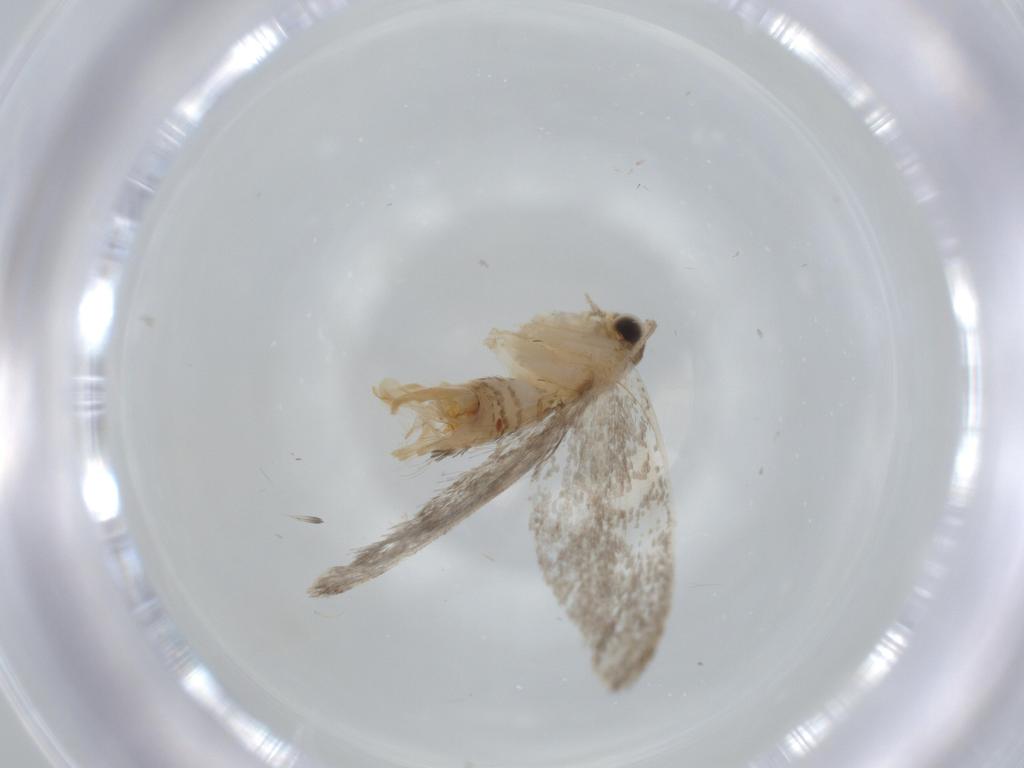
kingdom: Animalia
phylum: Arthropoda
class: Insecta
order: Lepidoptera
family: Tineidae
